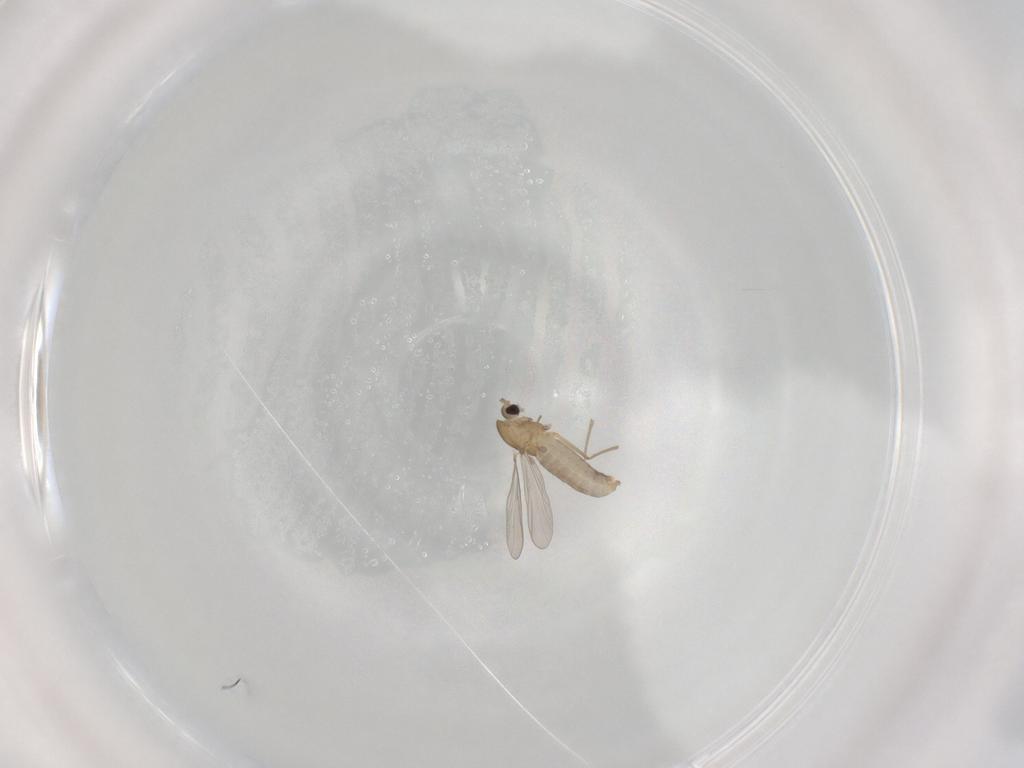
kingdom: Animalia
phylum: Arthropoda
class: Insecta
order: Diptera
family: Chironomidae
